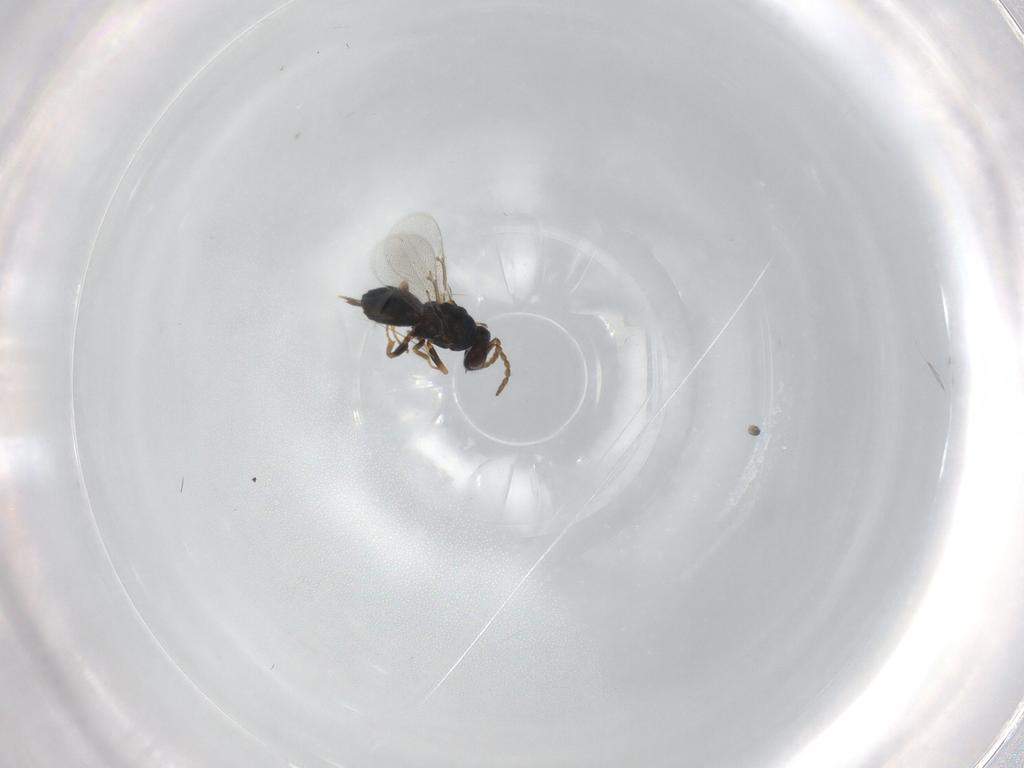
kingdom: Animalia
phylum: Arthropoda
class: Insecta
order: Hymenoptera
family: Eulophidae
